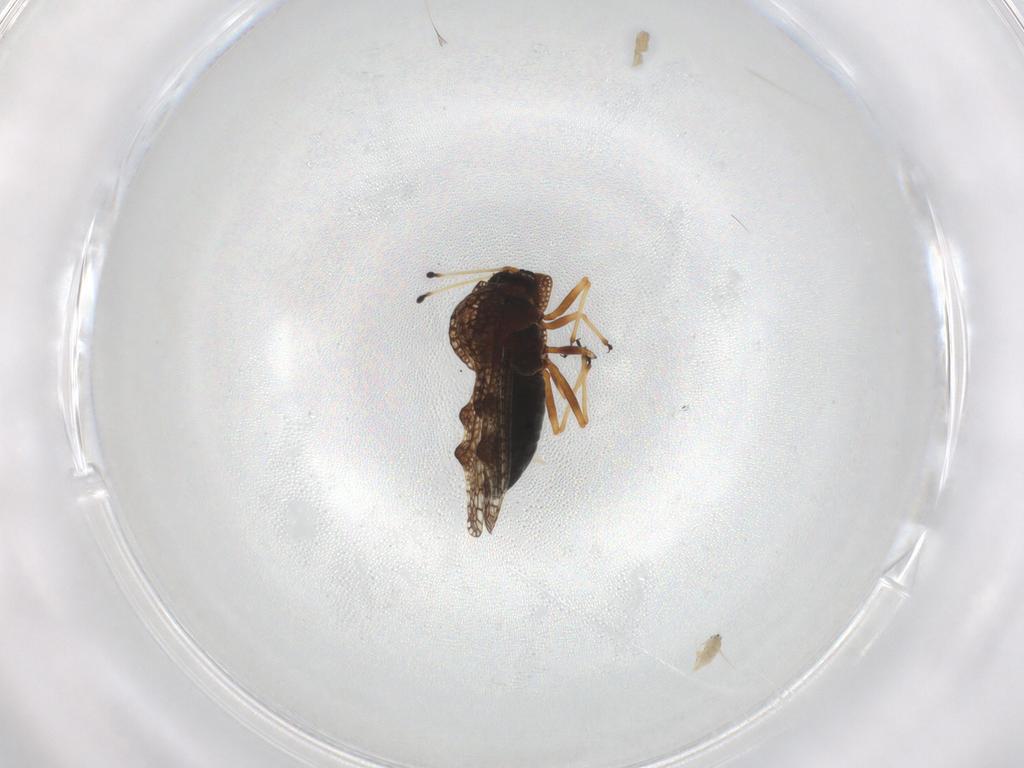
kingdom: Animalia
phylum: Arthropoda
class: Insecta
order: Hemiptera
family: Tingidae
